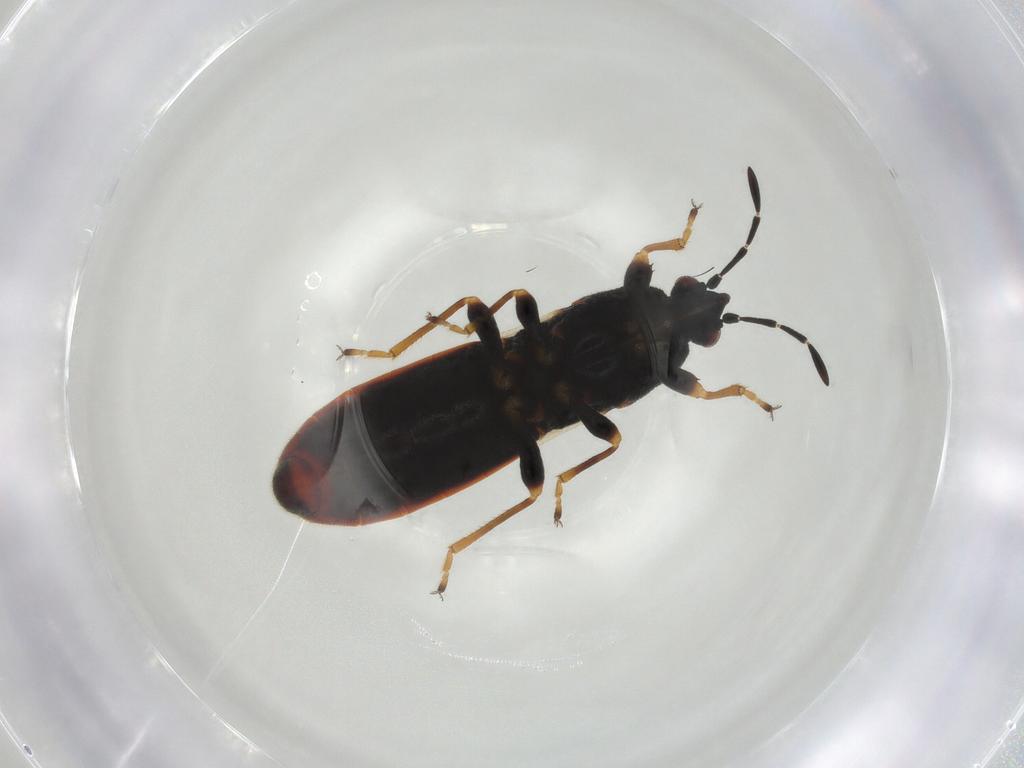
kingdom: Animalia
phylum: Arthropoda
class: Insecta
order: Hemiptera
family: Blissidae
